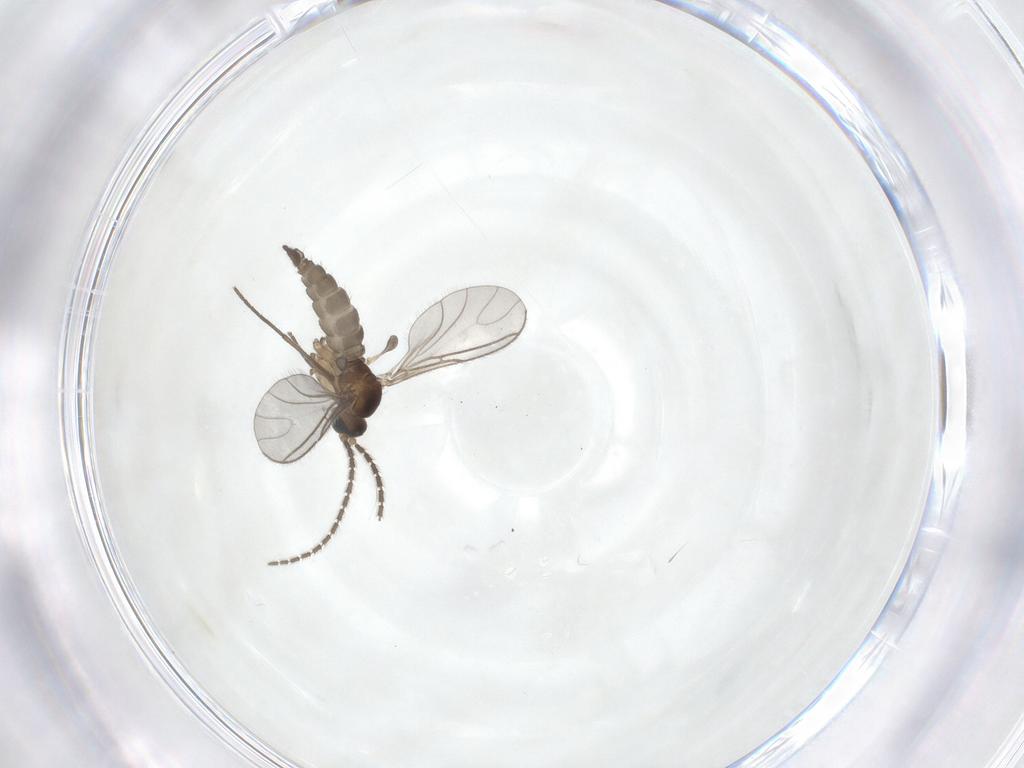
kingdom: Animalia
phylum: Arthropoda
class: Insecta
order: Diptera
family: Sciaridae
